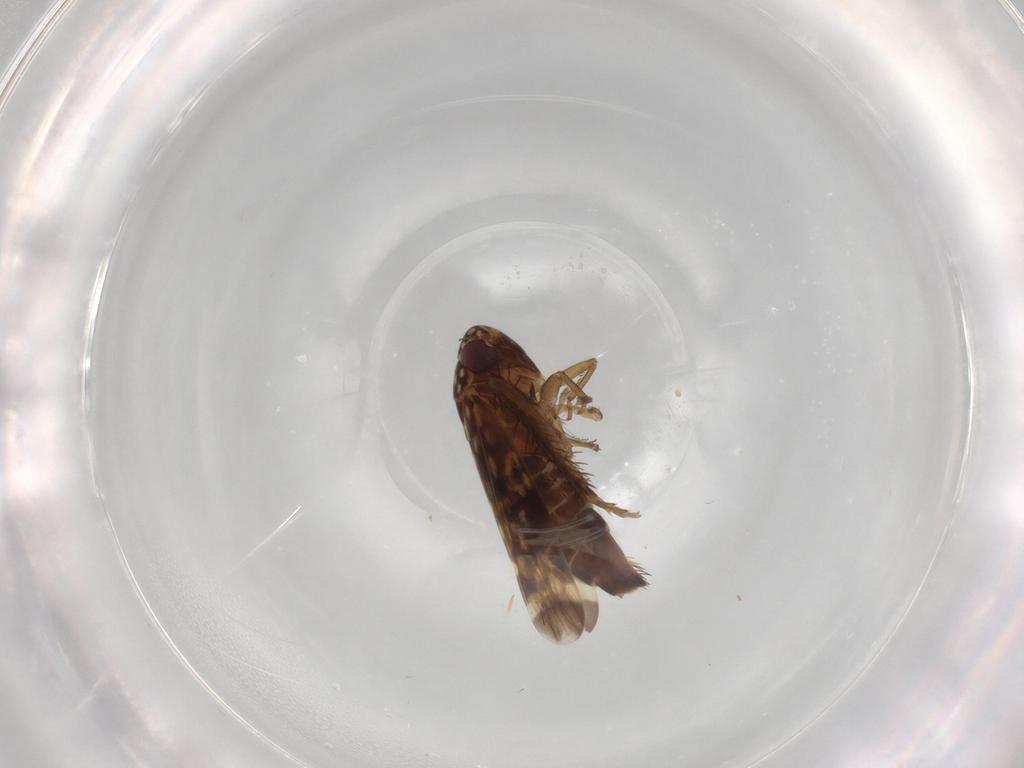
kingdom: Animalia
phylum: Arthropoda
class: Insecta
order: Hemiptera
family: Cicadellidae
